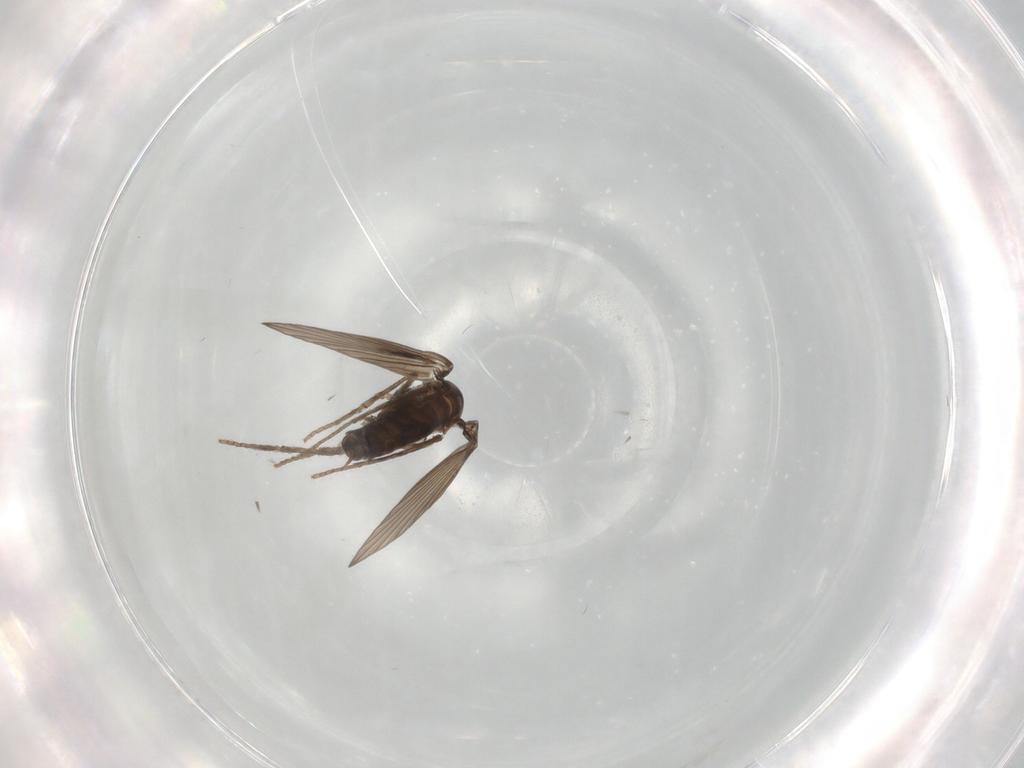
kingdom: Animalia
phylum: Arthropoda
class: Insecta
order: Diptera
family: Psychodidae
